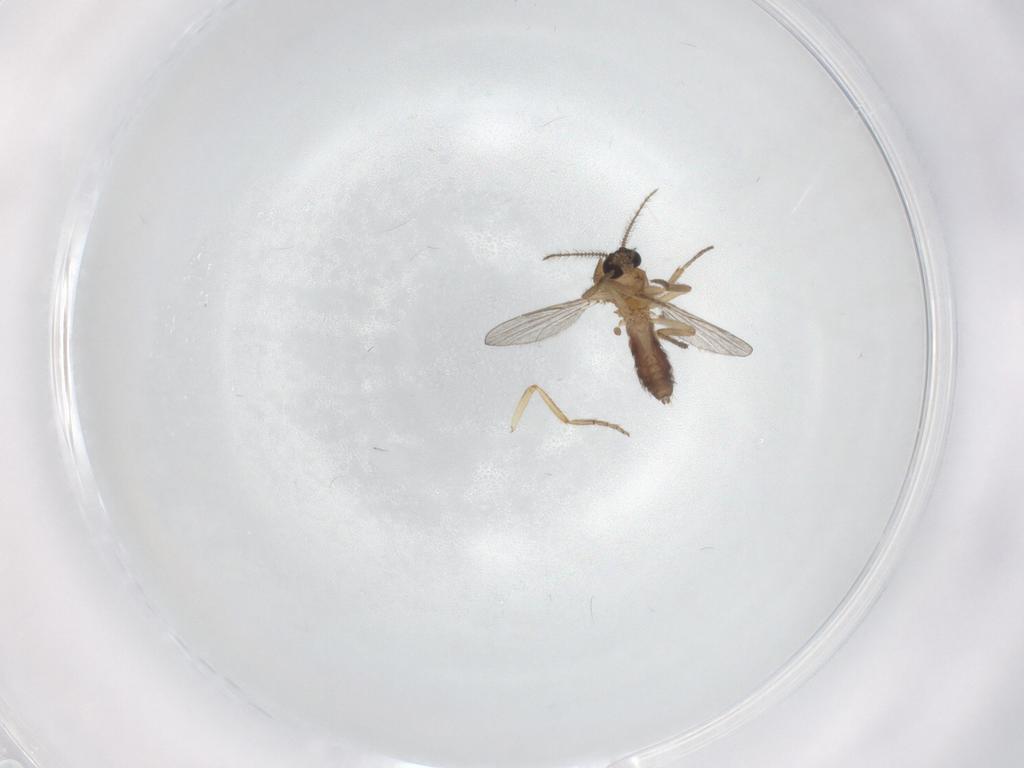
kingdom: Animalia
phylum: Arthropoda
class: Insecta
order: Diptera
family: Ceratopogonidae
